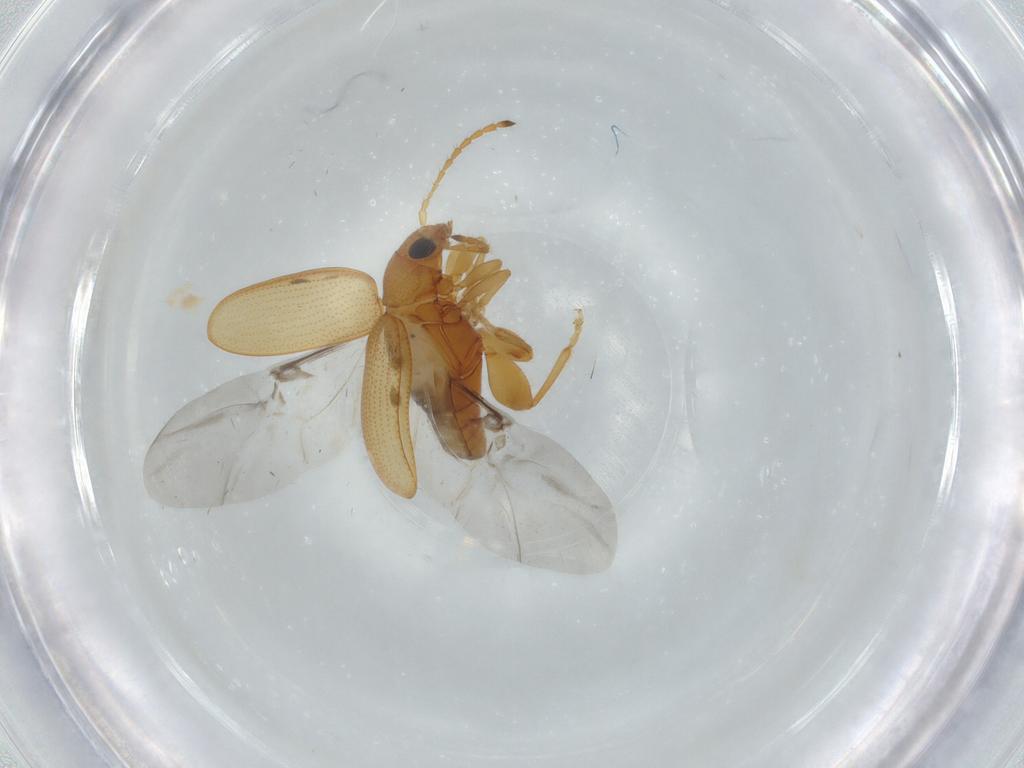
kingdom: Animalia
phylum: Arthropoda
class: Insecta
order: Coleoptera
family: Chrysomelidae
